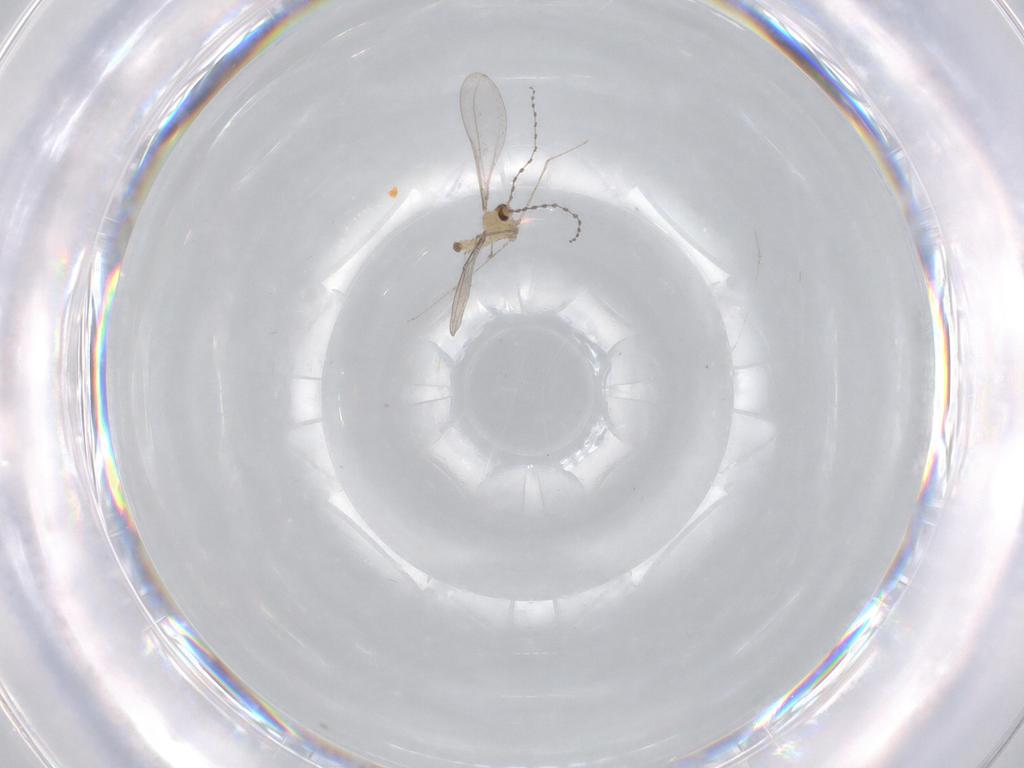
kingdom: Animalia
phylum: Arthropoda
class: Insecta
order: Diptera
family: Cecidomyiidae
